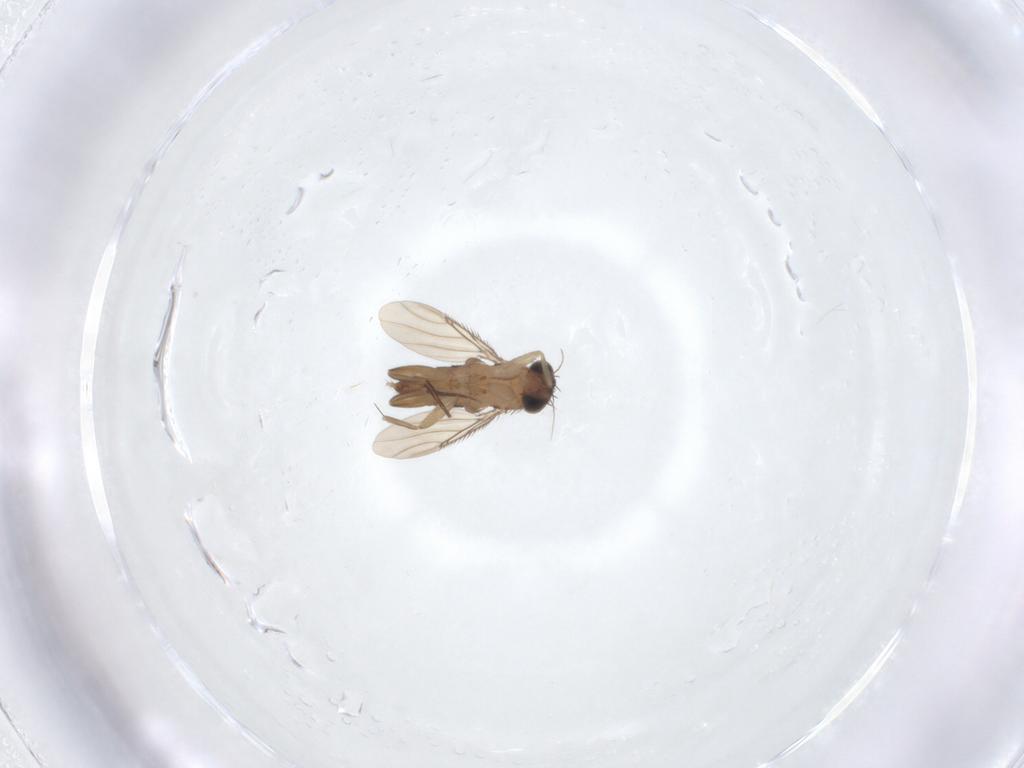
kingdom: Animalia
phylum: Arthropoda
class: Insecta
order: Diptera
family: Phoridae
